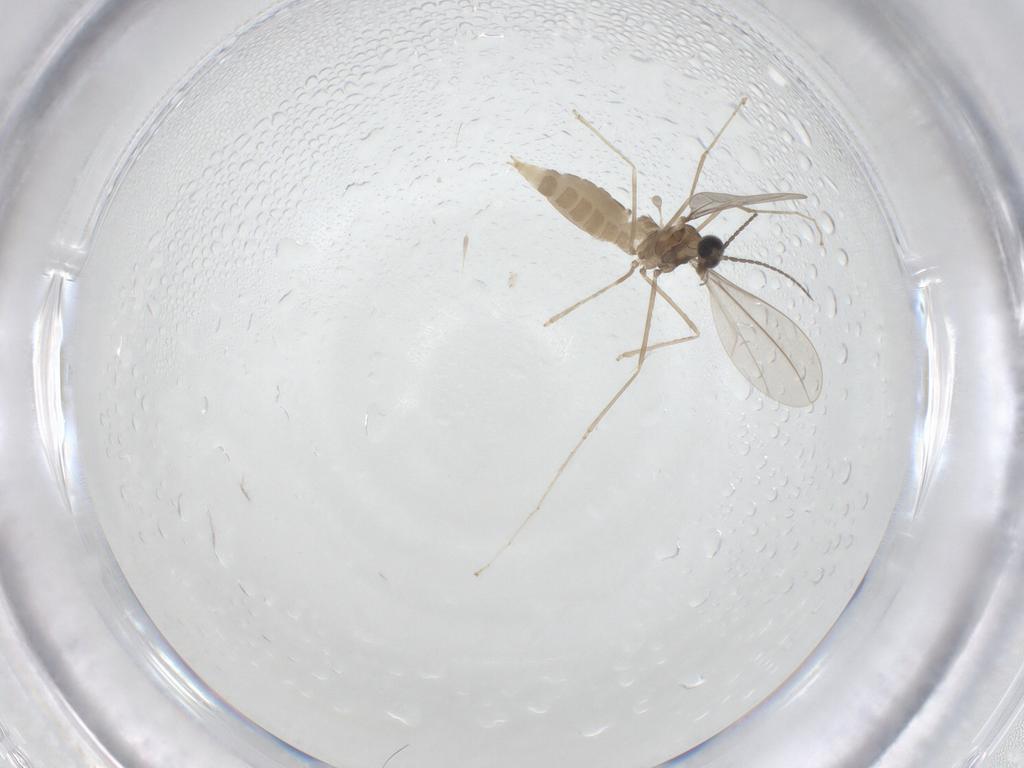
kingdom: Animalia
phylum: Arthropoda
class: Insecta
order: Diptera
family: Cecidomyiidae
